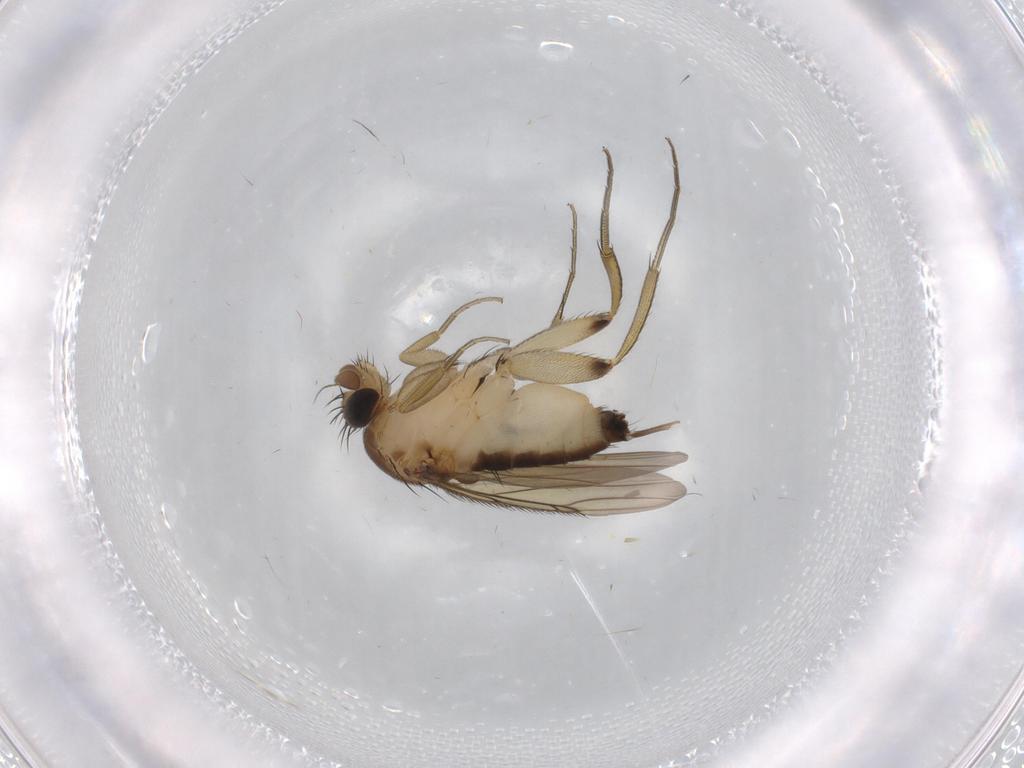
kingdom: Animalia
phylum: Arthropoda
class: Insecta
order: Diptera
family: Phoridae
